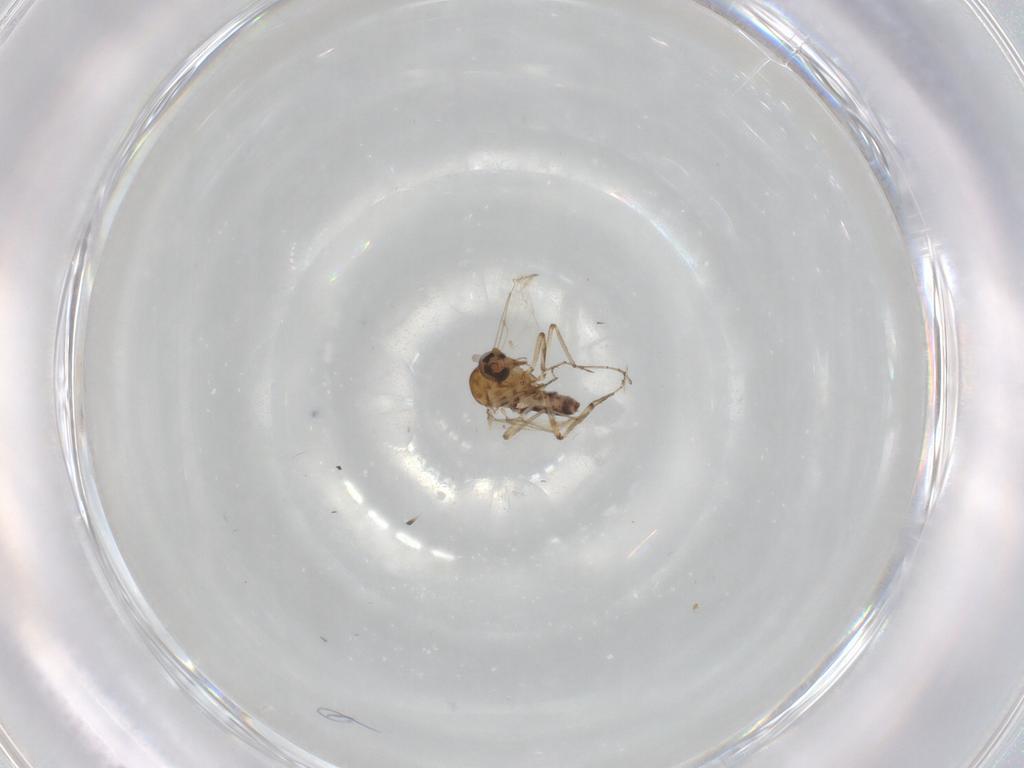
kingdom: Animalia
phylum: Arthropoda
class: Insecta
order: Diptera
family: Ceratopogonidae
